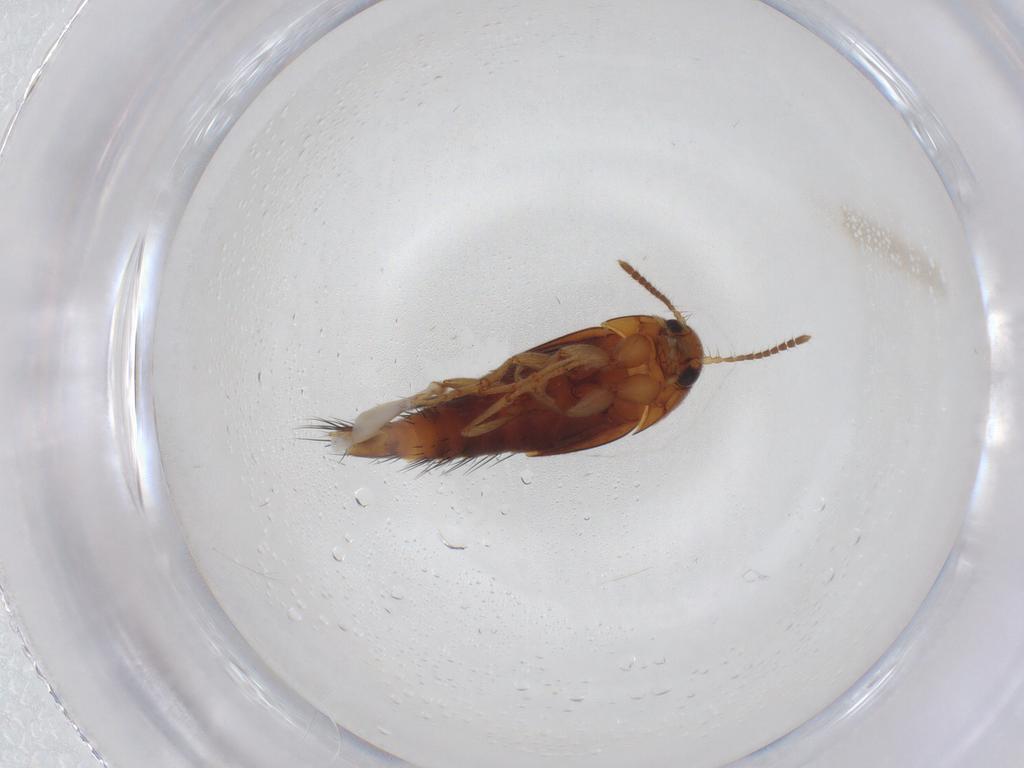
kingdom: Animalia
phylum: Arthropoda
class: Insecta
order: Coleoptera
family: Staphylinidae
